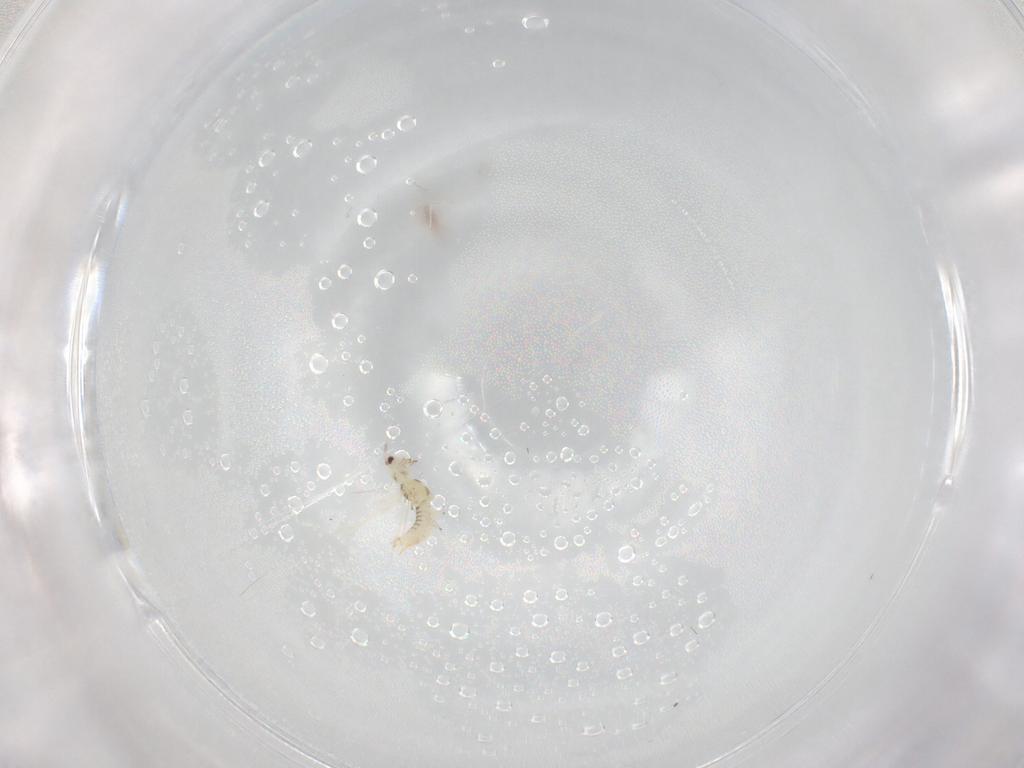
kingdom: Animalia
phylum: Arthropoda
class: Insecta
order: Thysanoptera
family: Thripidae
